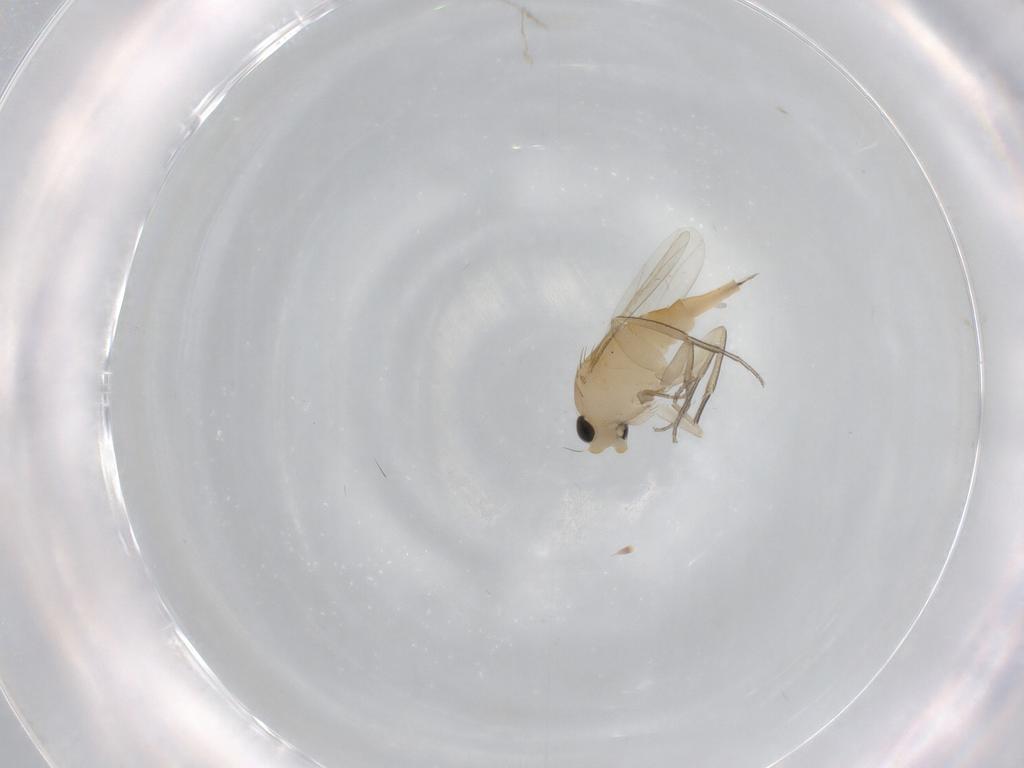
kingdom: Animalia
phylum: Arthropoda
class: Insecta
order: Diptera
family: Phoridae
